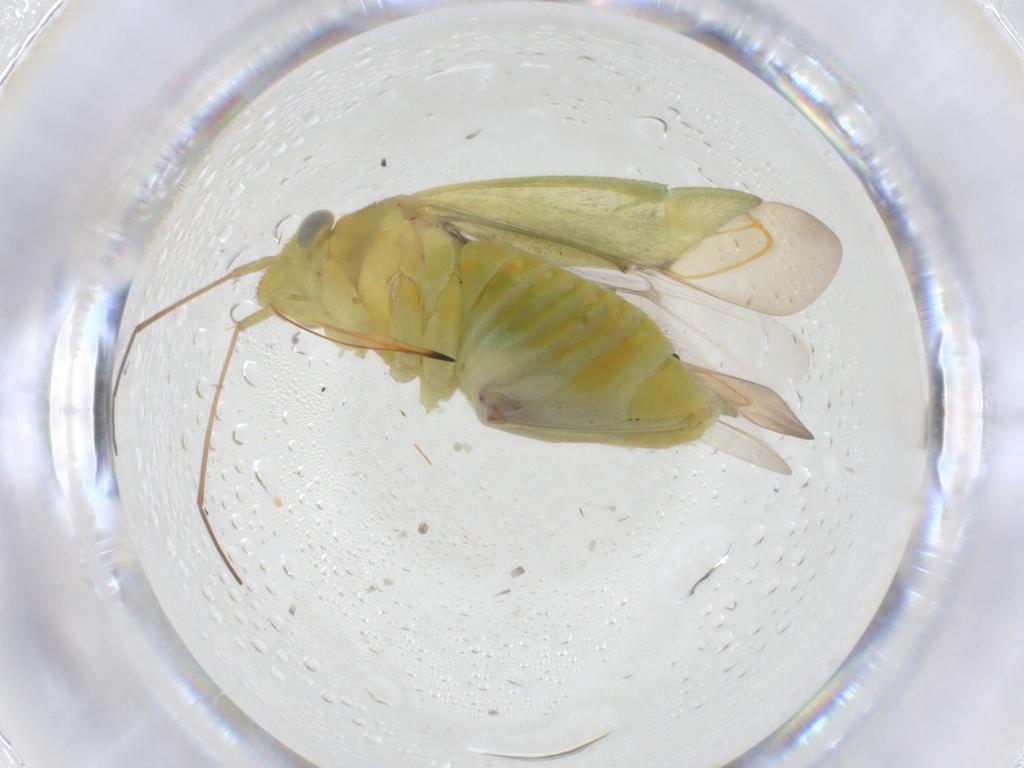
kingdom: Animalia
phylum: Arthropoda
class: Insecta
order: Hemiptera
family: Miridae
